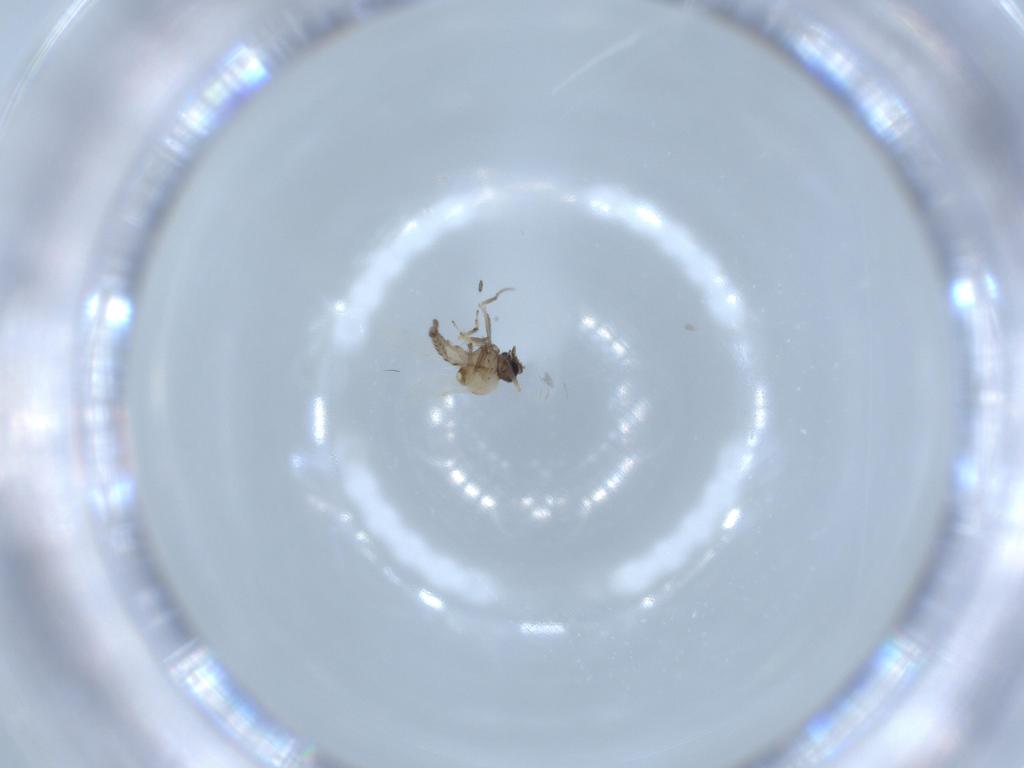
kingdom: Animalia
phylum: Arthropoda
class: Insecta
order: Diptera
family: Ceratopogonidae
